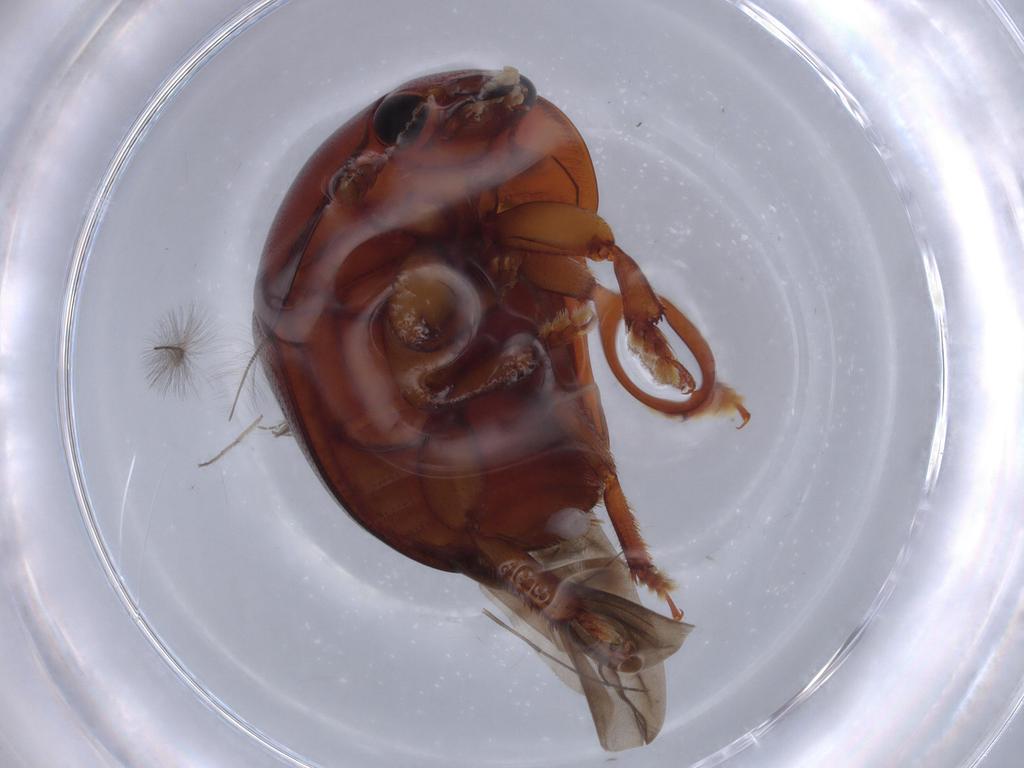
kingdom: Animalia
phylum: Arthropoda
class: Insecta
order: Coleoptera
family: Nitidulidae
